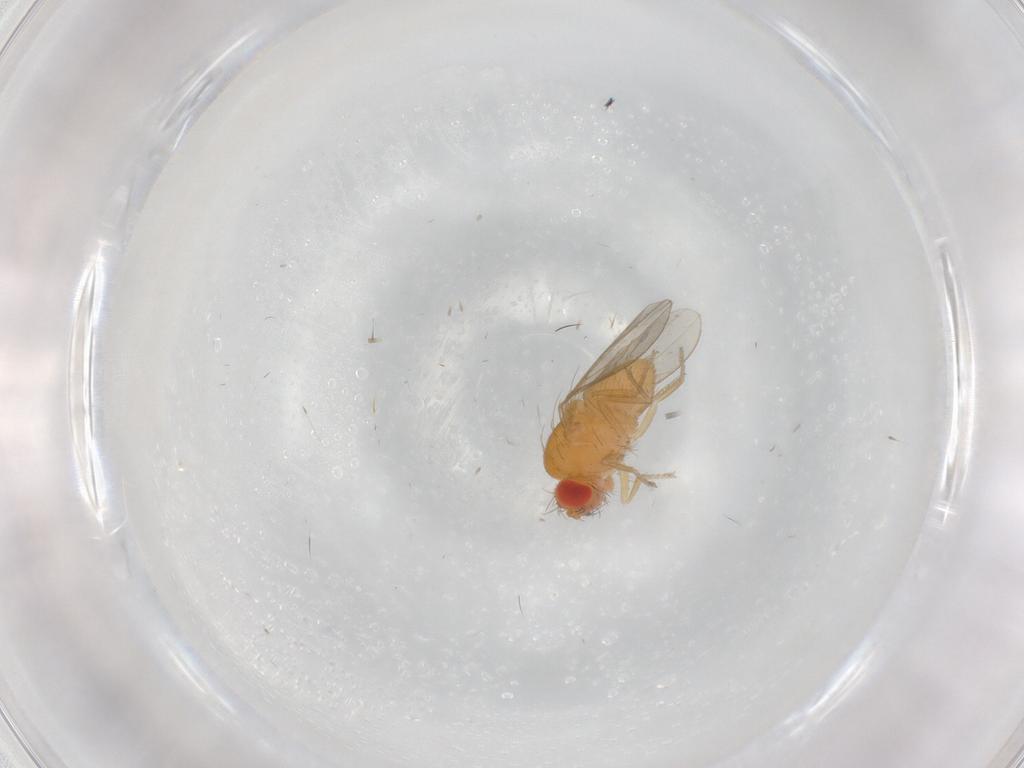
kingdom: Animalia
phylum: Arthropoda
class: Insecta
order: Diptera
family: Drosophilidae
